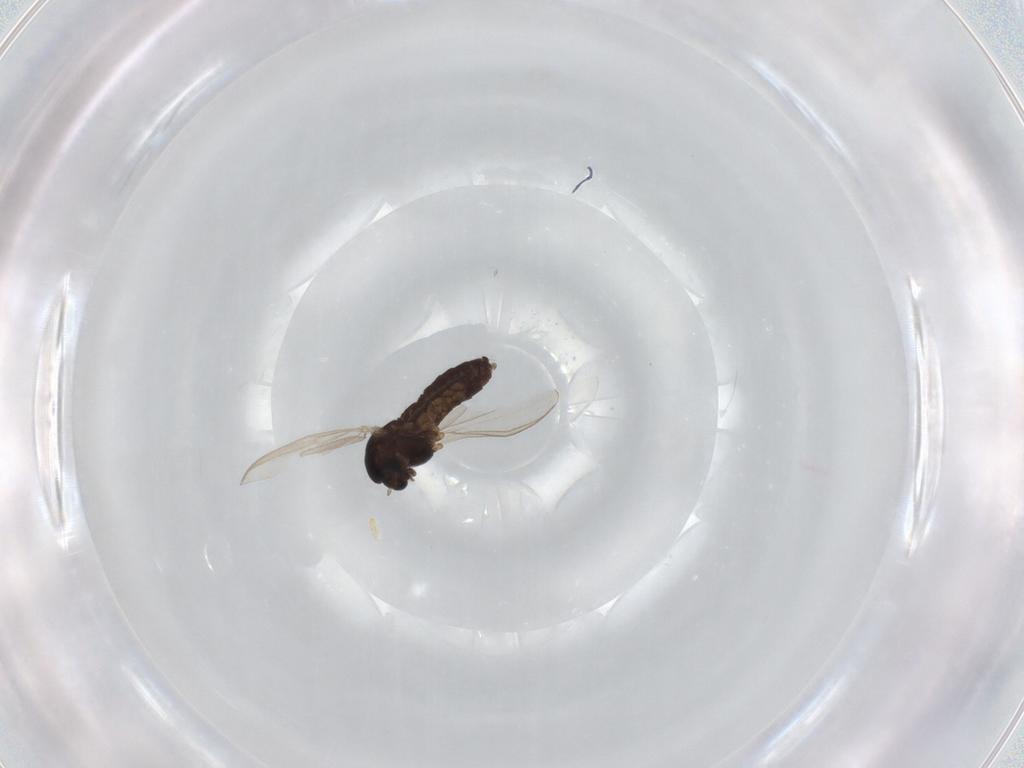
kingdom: Animalia
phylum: Arthropoda
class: Insecta
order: Diptera
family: Chironomidae
